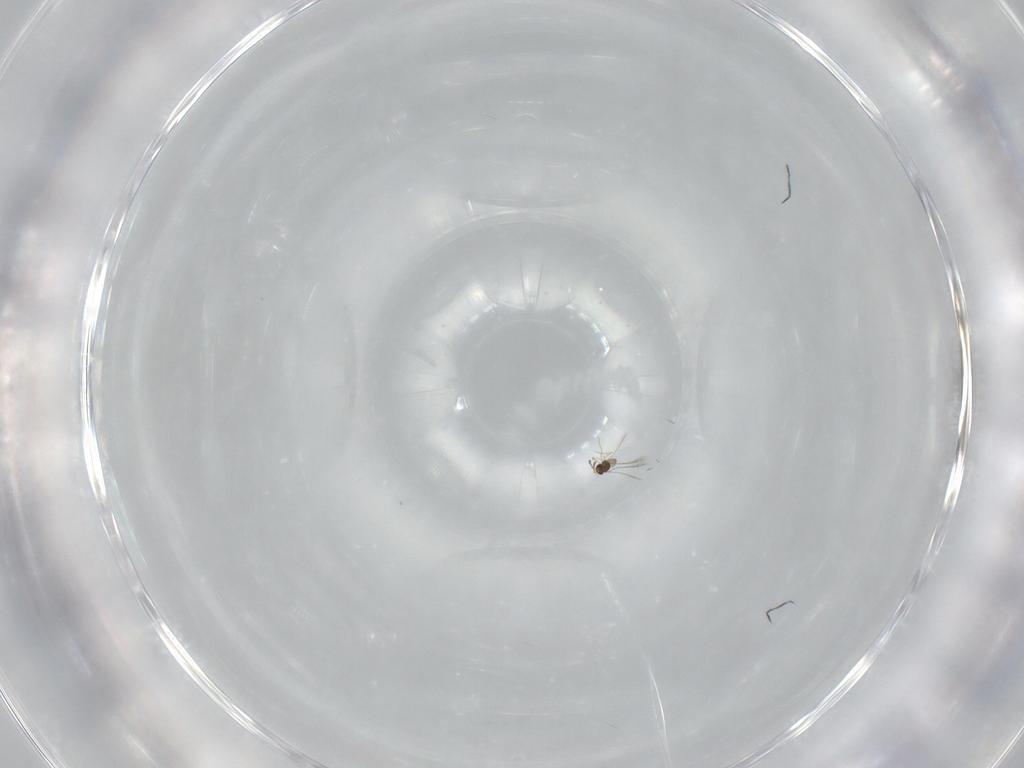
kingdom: Animalia
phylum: Arthropoda
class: Insecta
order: Hymenoptera
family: Mymaridae
